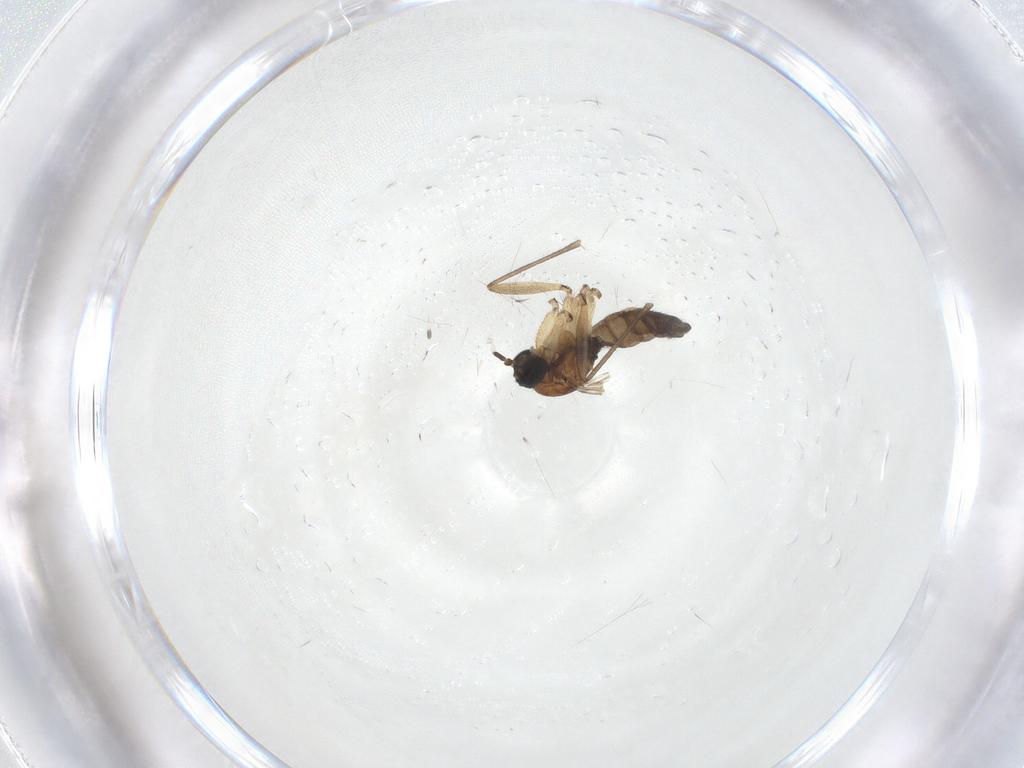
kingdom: Animalia
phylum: Arthropoda
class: Insecta
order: Diptera
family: Sciaridae
